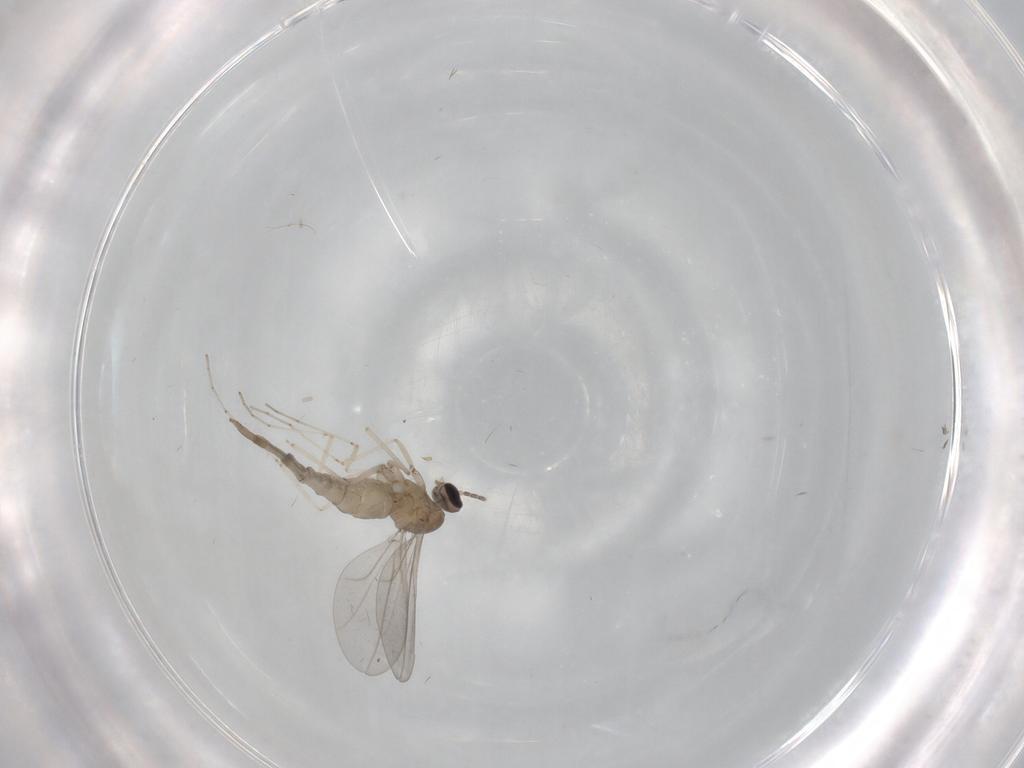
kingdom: Animalia
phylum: Arthropoda
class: Insecta
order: Diptera
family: Cecidomyiidae
